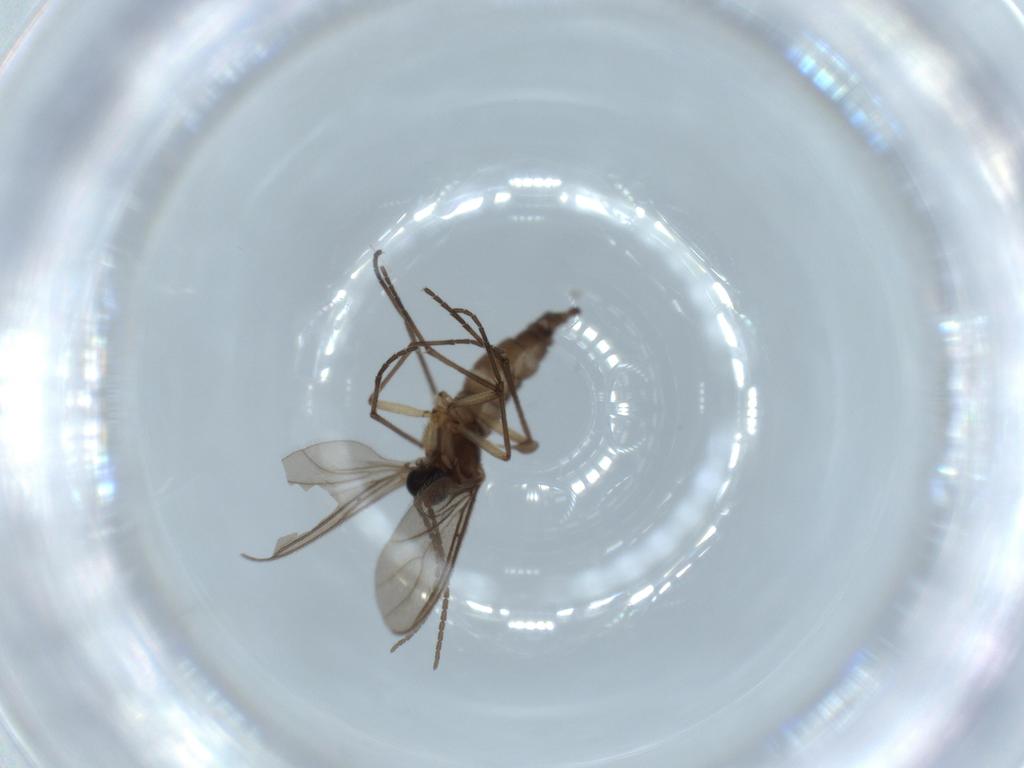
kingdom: Animalia
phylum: Arthropoda
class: Insecta
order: Diptera
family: Sciaridae
